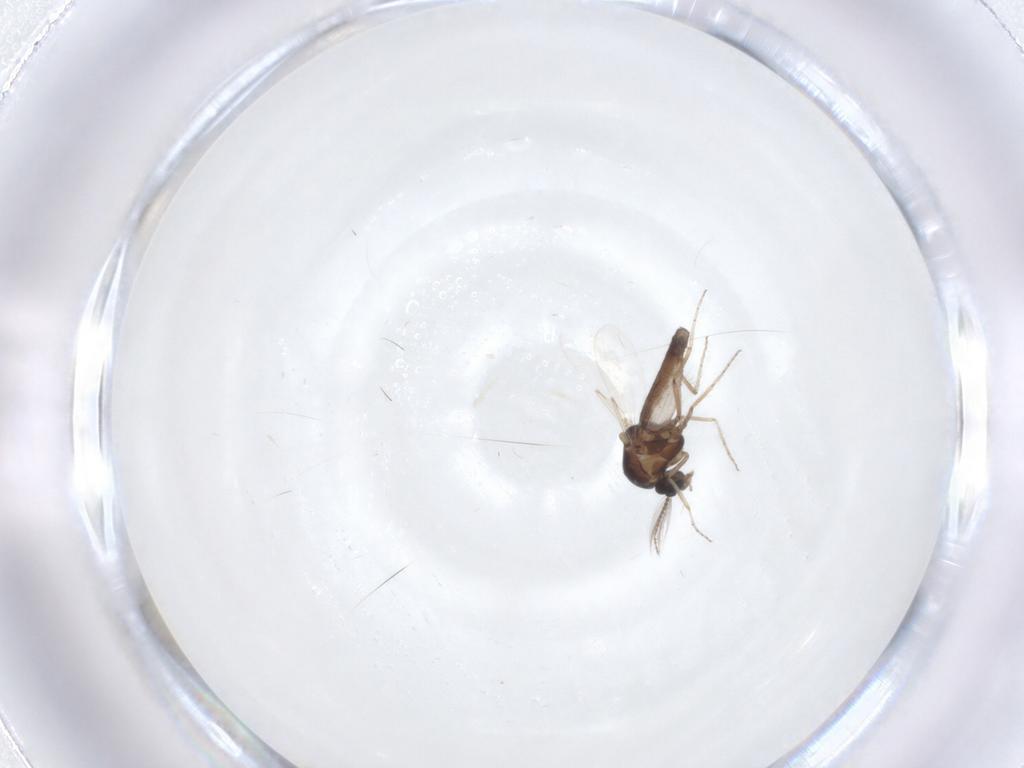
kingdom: Animalia
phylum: Arthropoda
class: Insecta
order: Diptera
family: Ceratopogonidae
